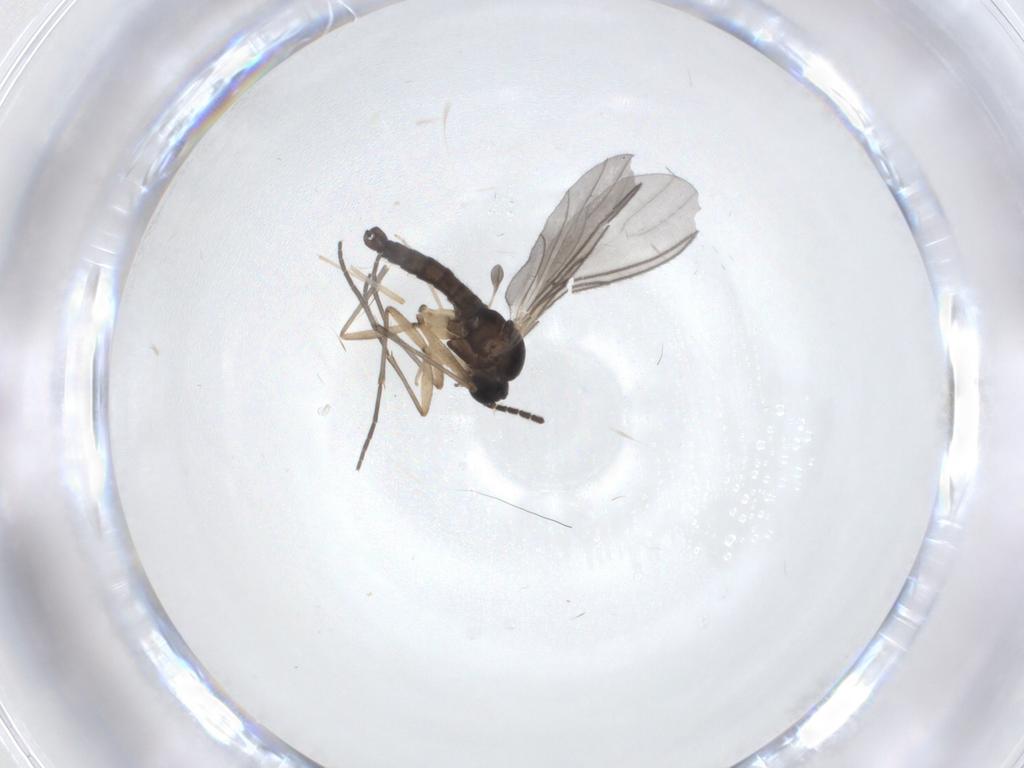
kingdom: Animalia
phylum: Arthropoda
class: Insecta
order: Diptera
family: Sciaridae
